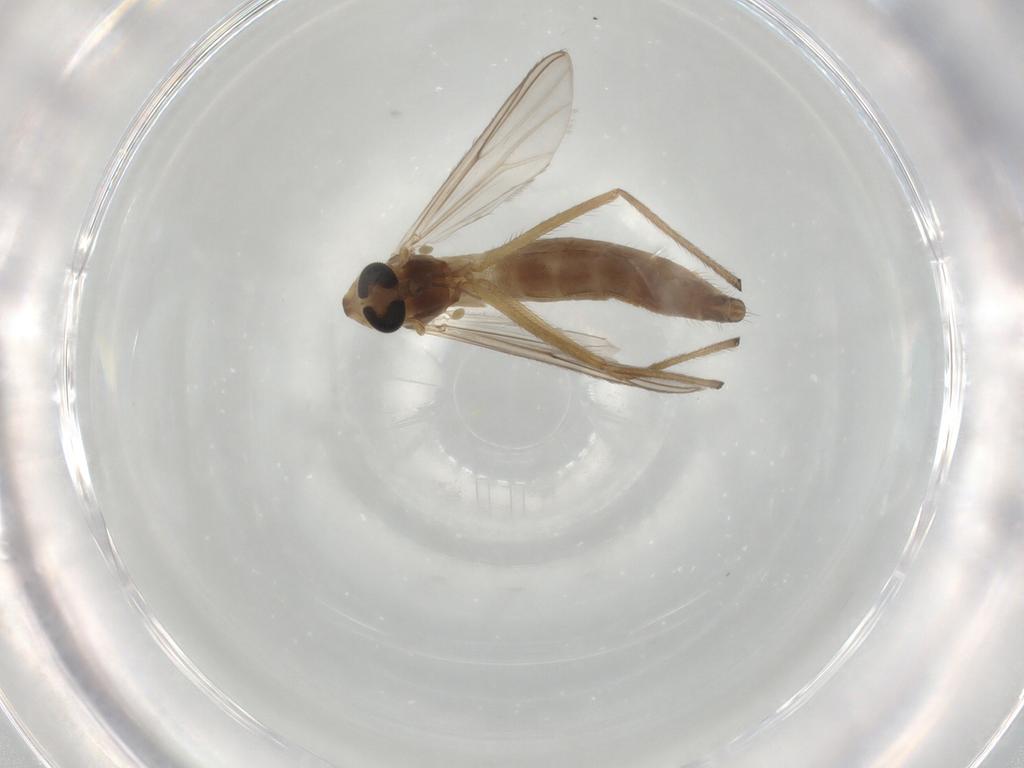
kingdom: Animalia
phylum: Arthropoda
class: Insecta
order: Diptera
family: Chironomidae
